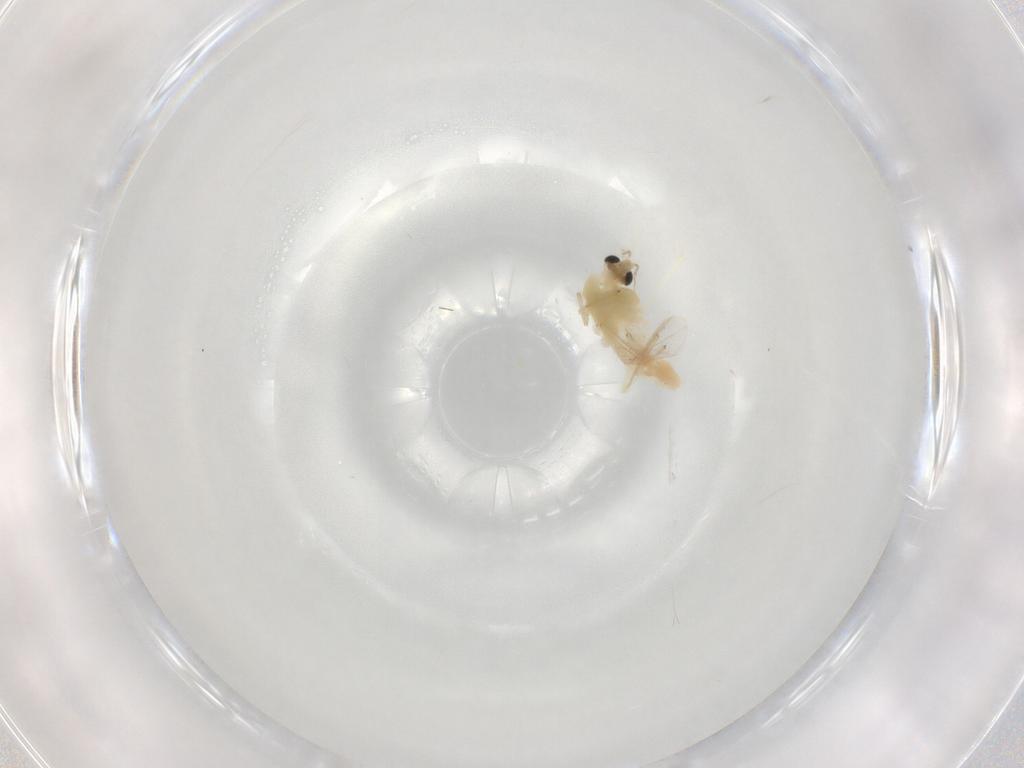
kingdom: Animalia
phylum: Arthropoda
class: Insecta
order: Diptera
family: Chironomidae
